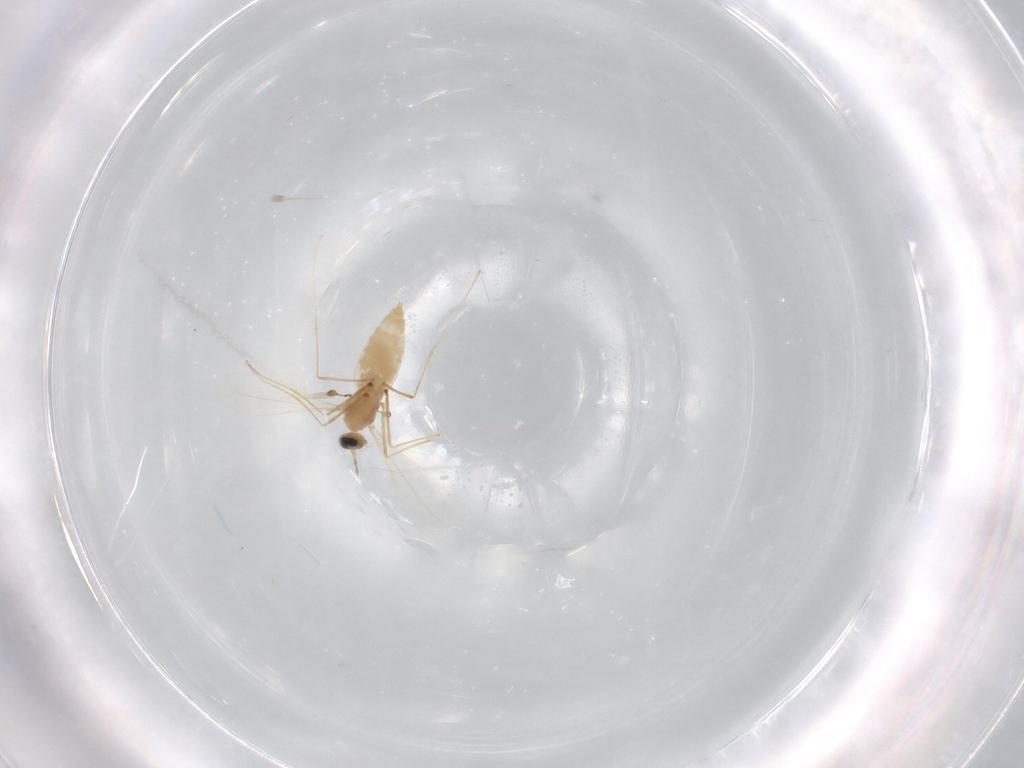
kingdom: Animalia
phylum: Arthropoda
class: Insecta
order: Diptera
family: Cecidomyiidae
